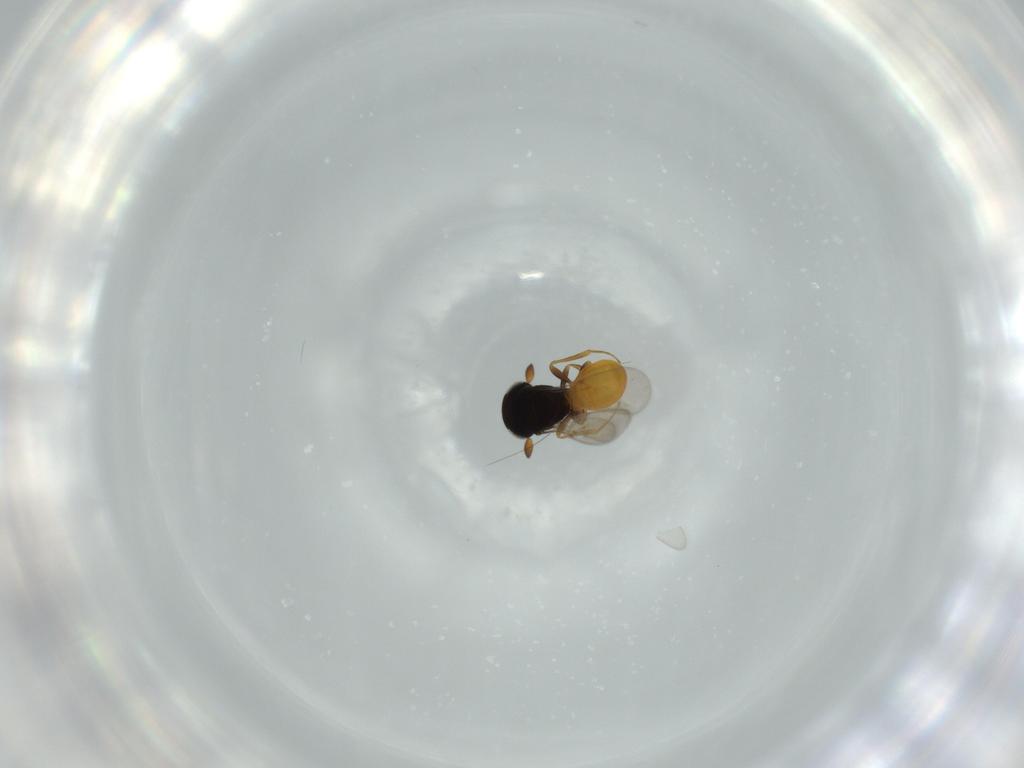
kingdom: Animalia
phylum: Arthropoda
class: Insecta
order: Hymenoptera
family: Scelionidae
